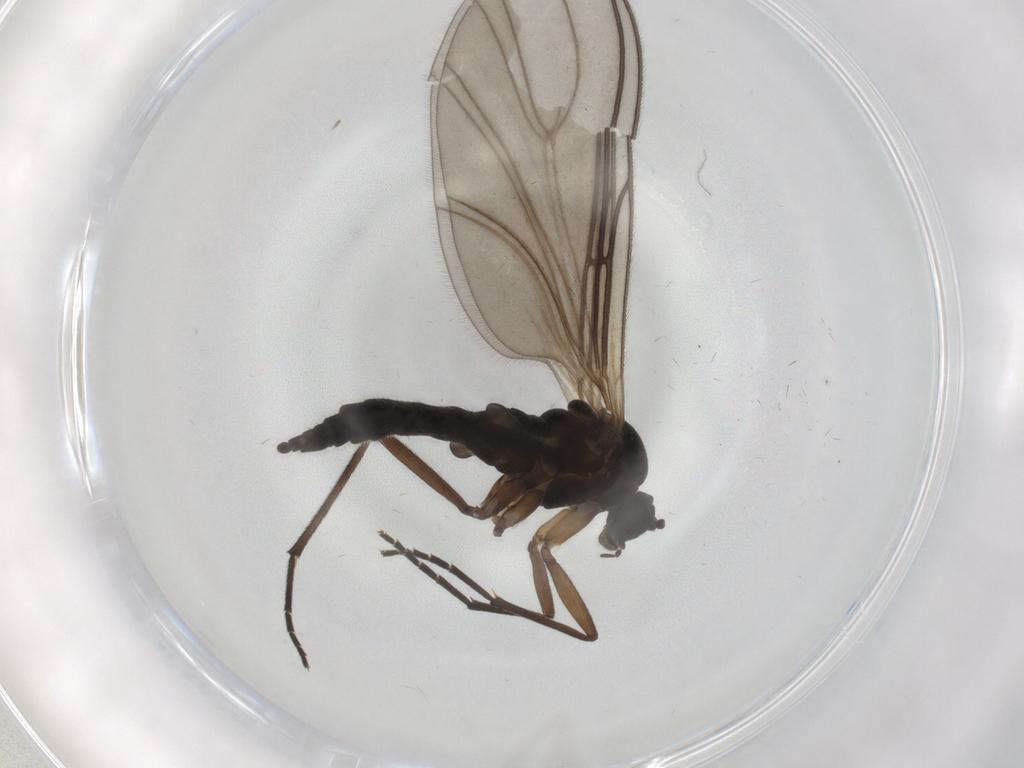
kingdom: Animalia
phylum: Arthropoda
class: Insecta
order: Diptera
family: Sciaridae
